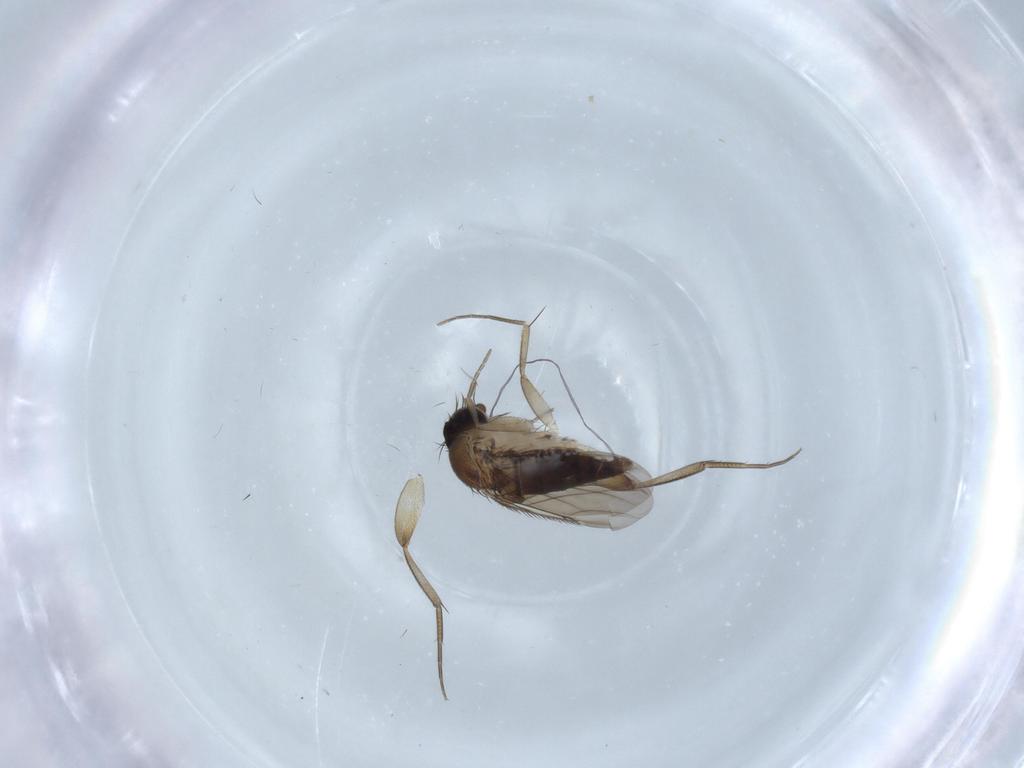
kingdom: Animalia
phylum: Arthropoda
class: Insecta
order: Diptera
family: Phoridae
